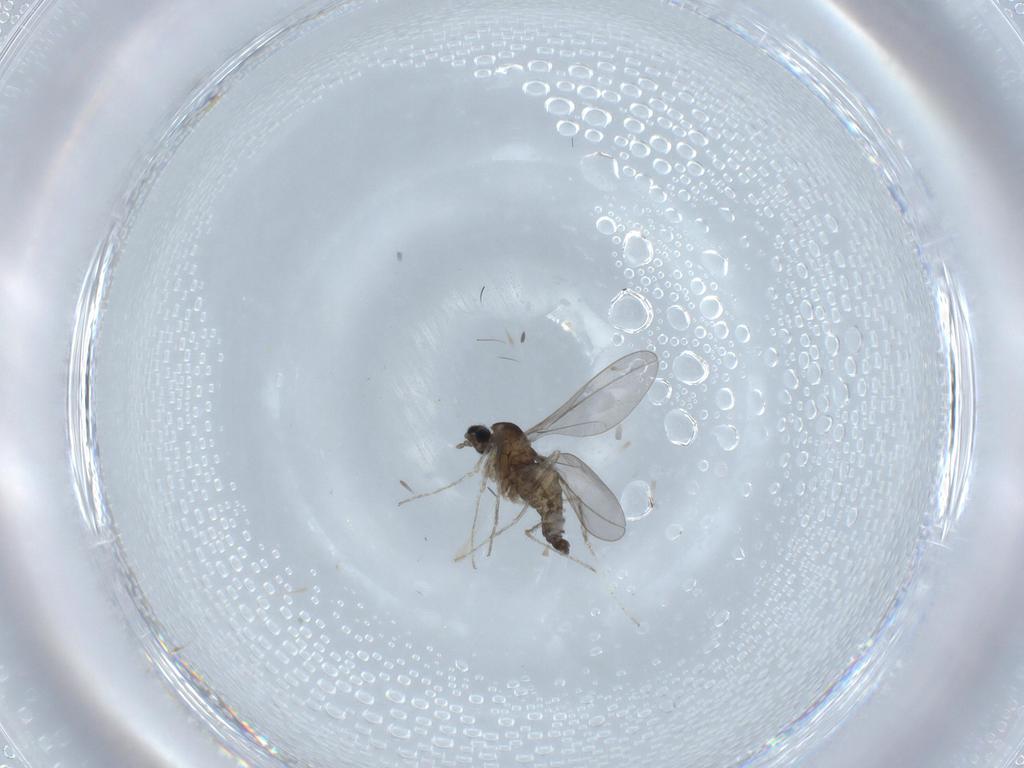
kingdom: Animalia
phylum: Arthropoda
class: Insecta
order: Diptera
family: Cecidomyiidae
